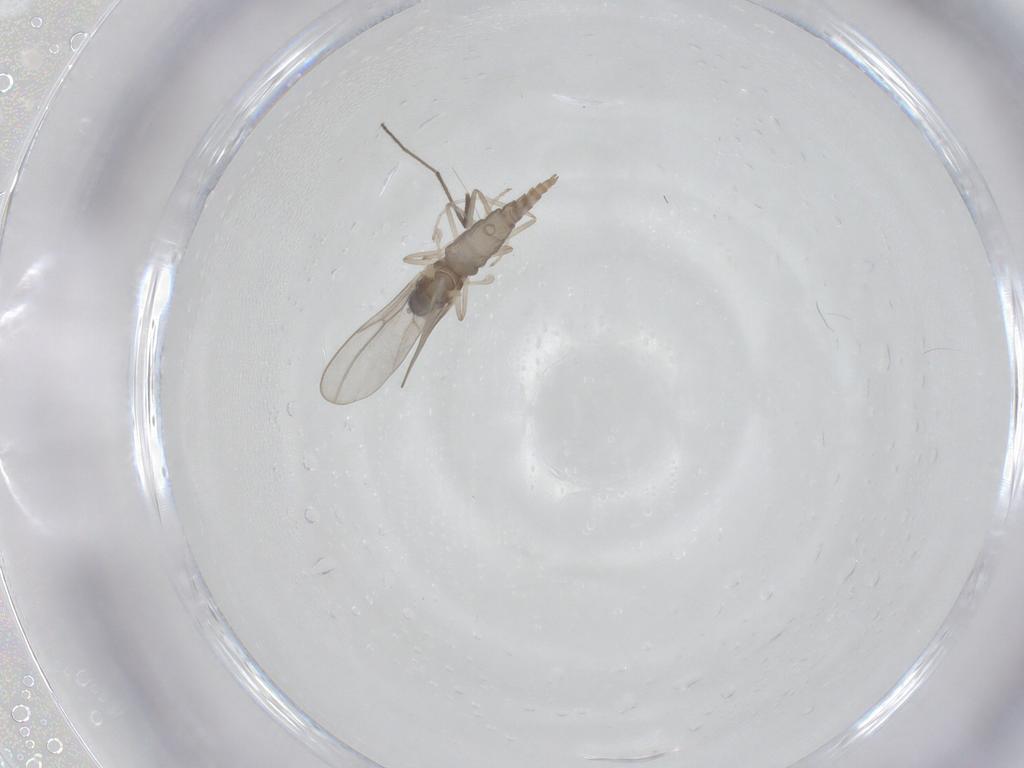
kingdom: Animalia
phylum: Arthropoda
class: Insecta
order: Diptera
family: Chironomidae
